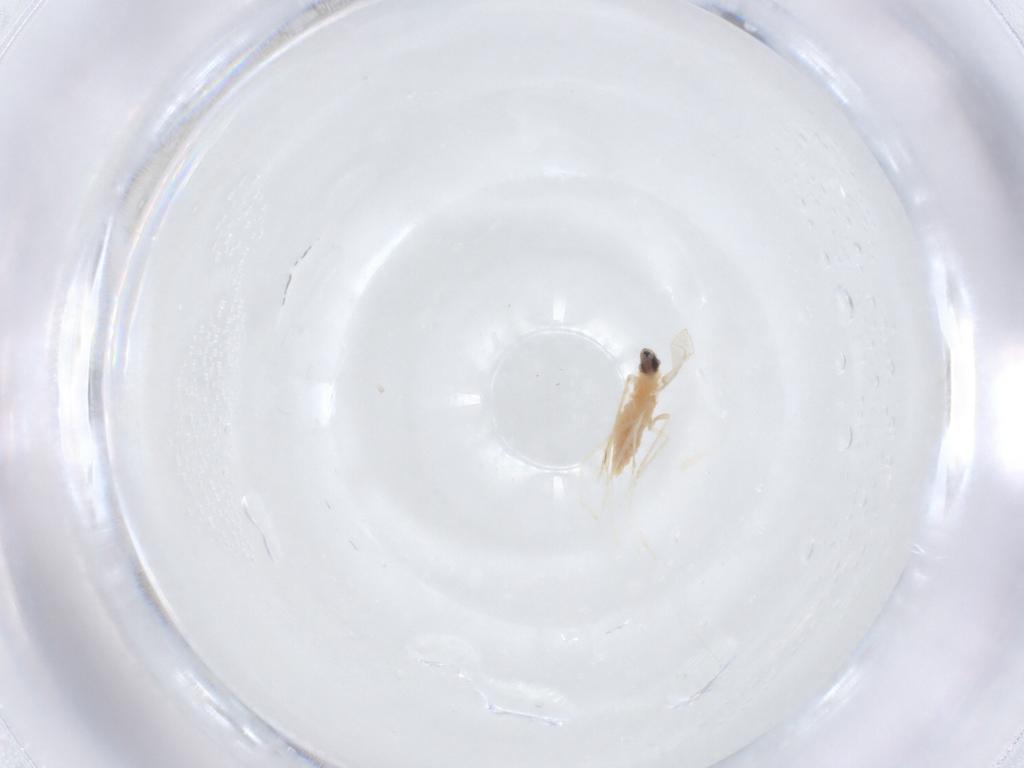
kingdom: Animalia
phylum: Arthropoda
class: Insecta
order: Diptera
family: Cecidomyiidae
